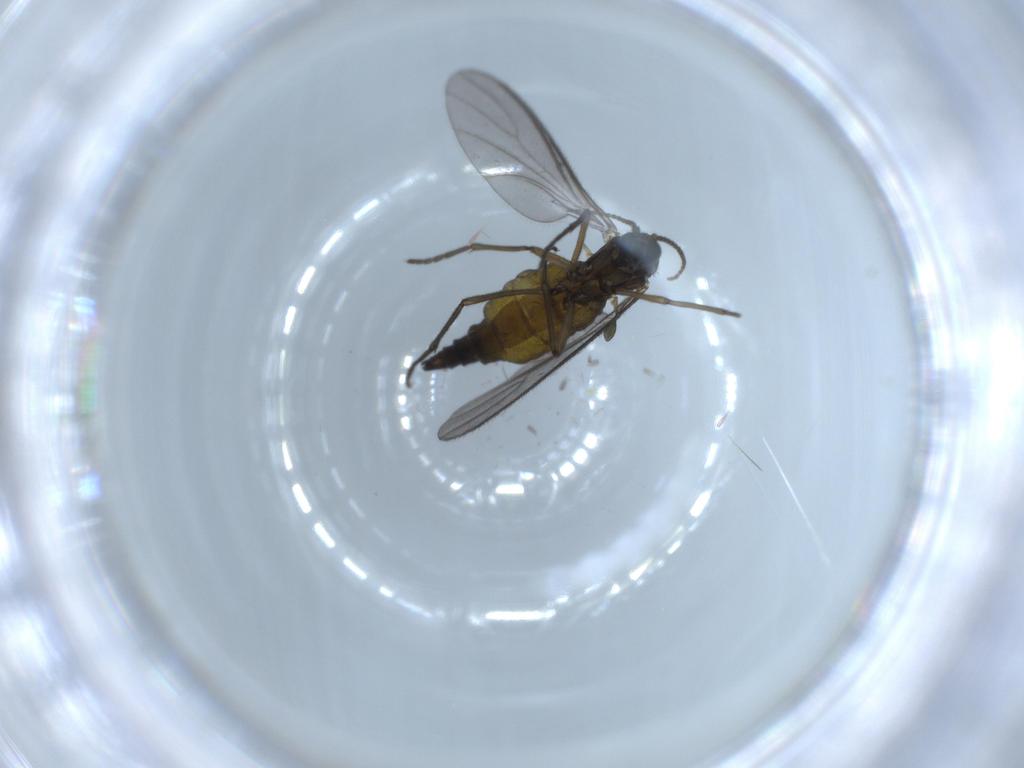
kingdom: Animalia
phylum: Arthropoda
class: Insecta
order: Diptera
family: Sciaridae
